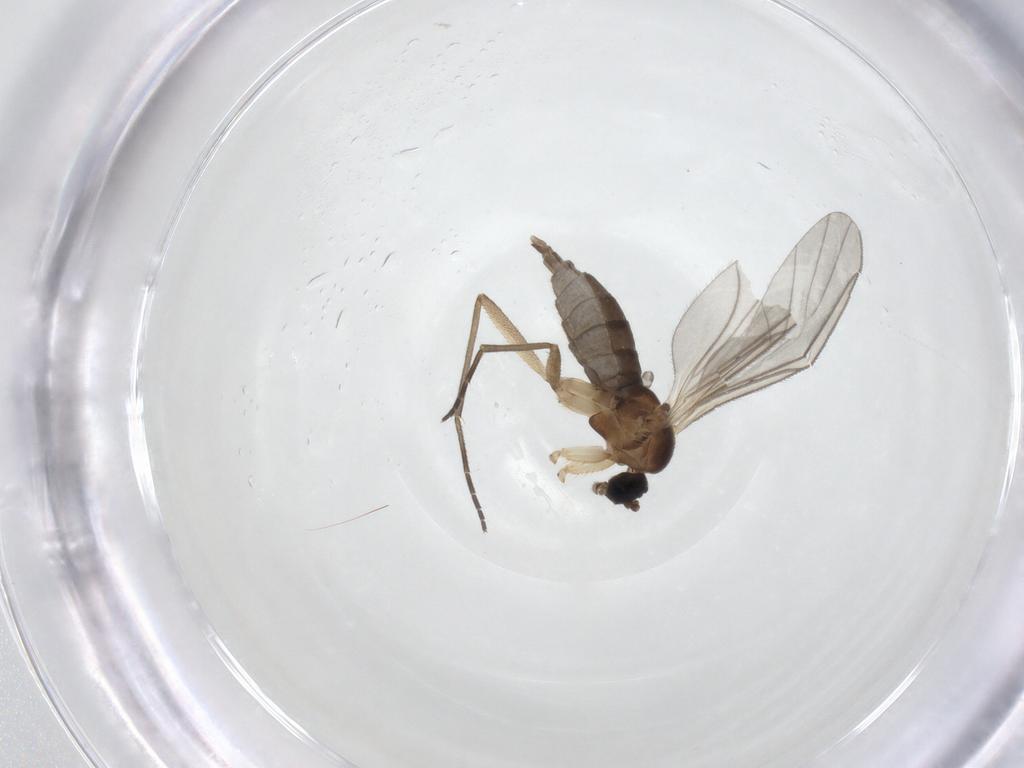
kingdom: Animalia
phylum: Arthropoda
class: Insecta
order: Diptera
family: Sciaridae
